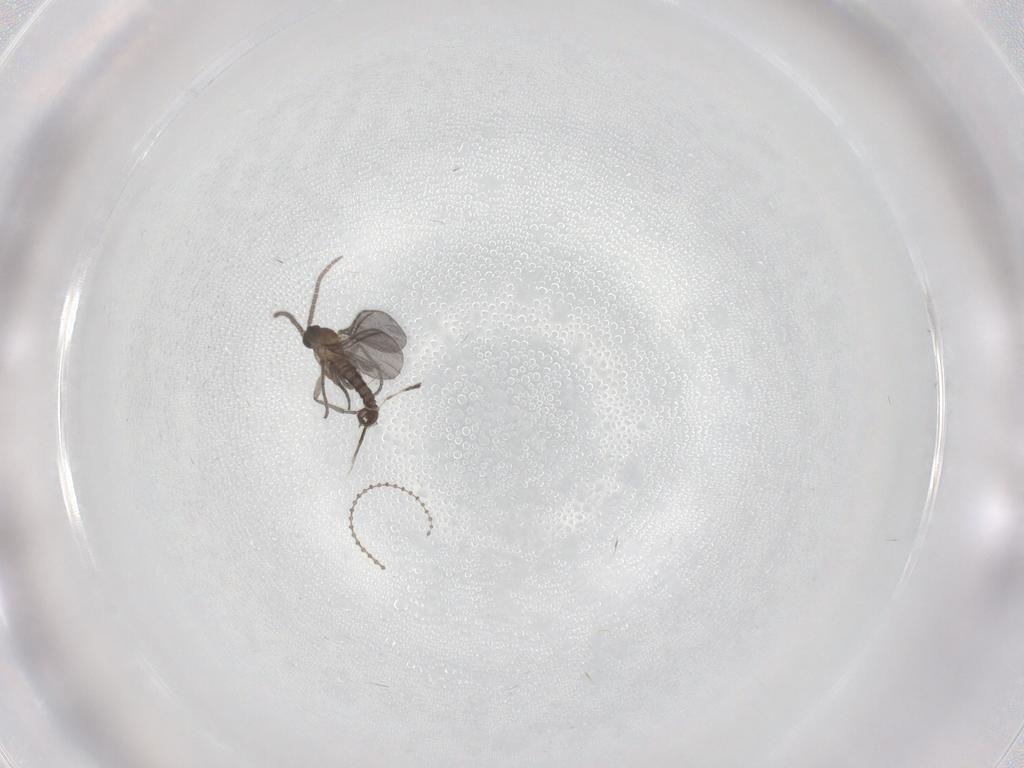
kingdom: Animalia
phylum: Arthropoda
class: Insecta
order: Diptera
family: Sciaridae
